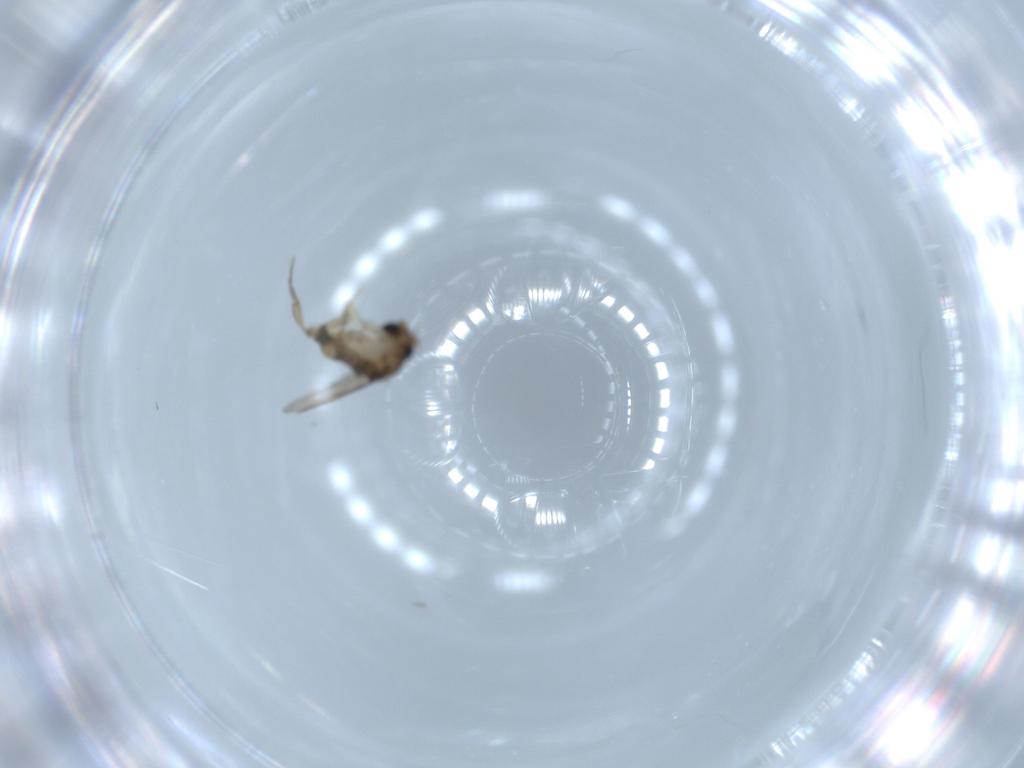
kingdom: Animalia
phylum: Arthropoda
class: Insecta
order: Diptera
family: Phoridae
